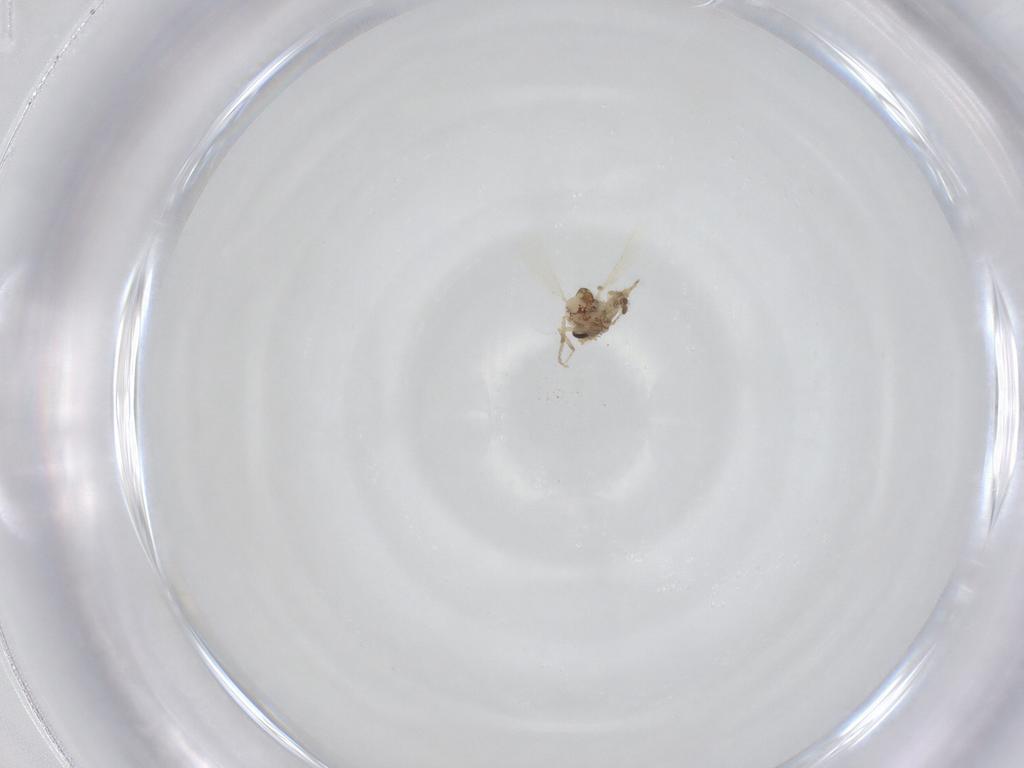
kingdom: Animalia
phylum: Arthropoda
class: Insecta
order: Diptera
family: Ceratopogonidae
